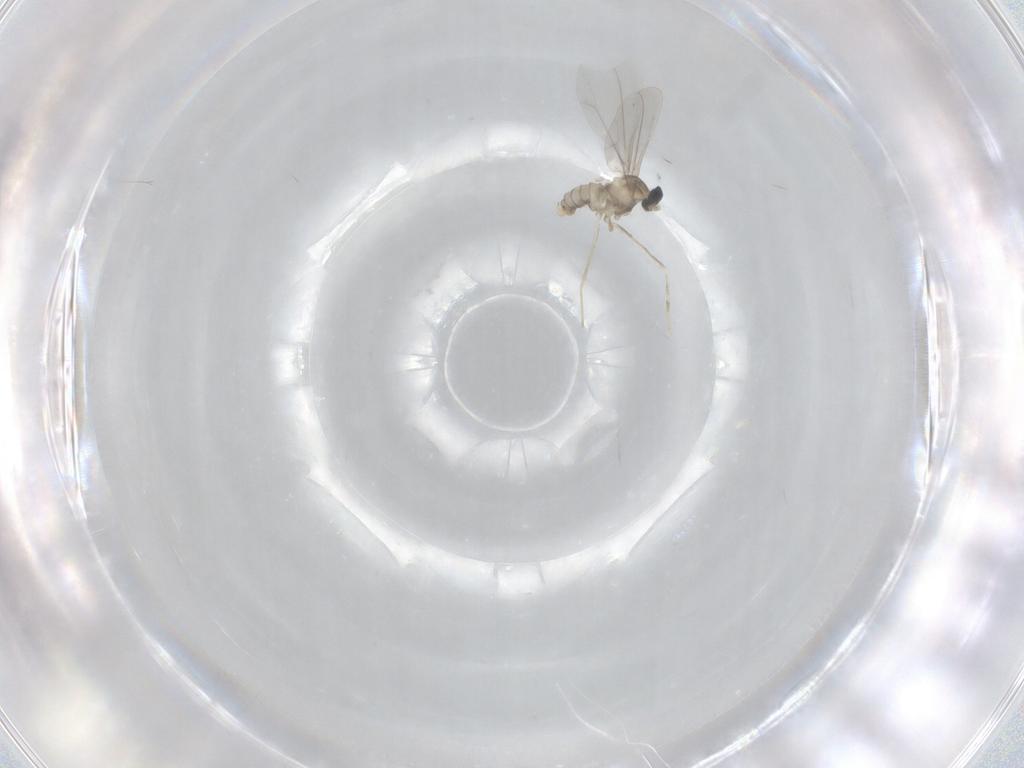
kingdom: Animalia
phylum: Arthropoda
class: Insecta
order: Diptera
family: Cecidomyiidae
